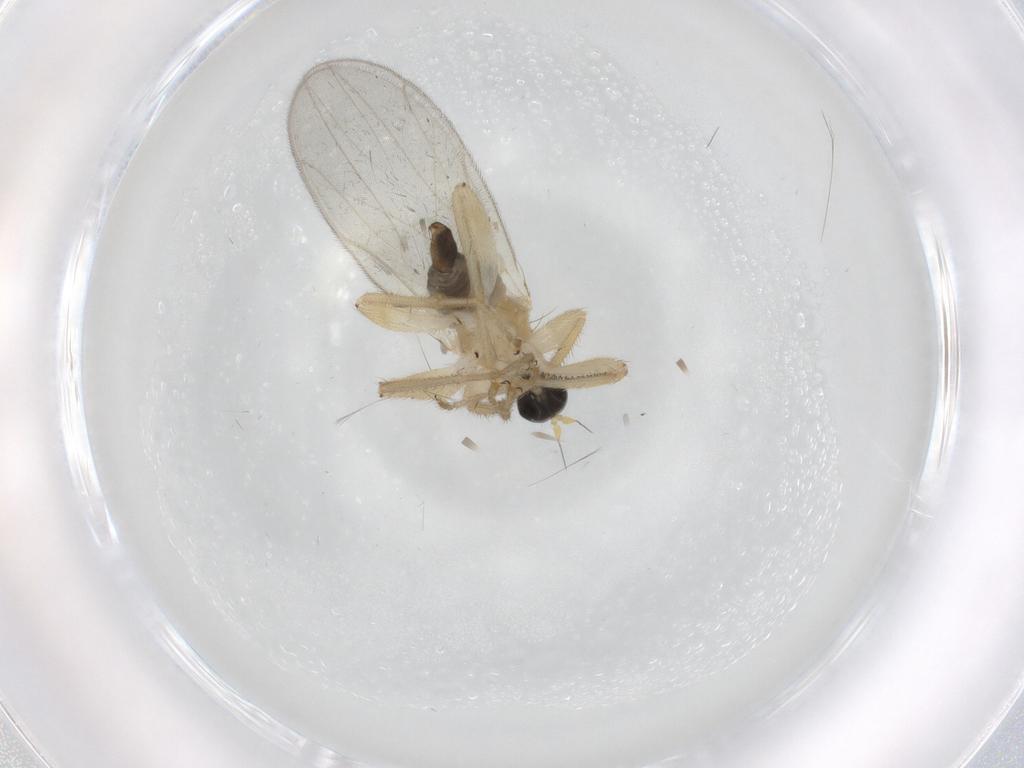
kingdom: Animalia
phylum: Arthropoda
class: Insecta
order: Diptera
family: Hybotidae
